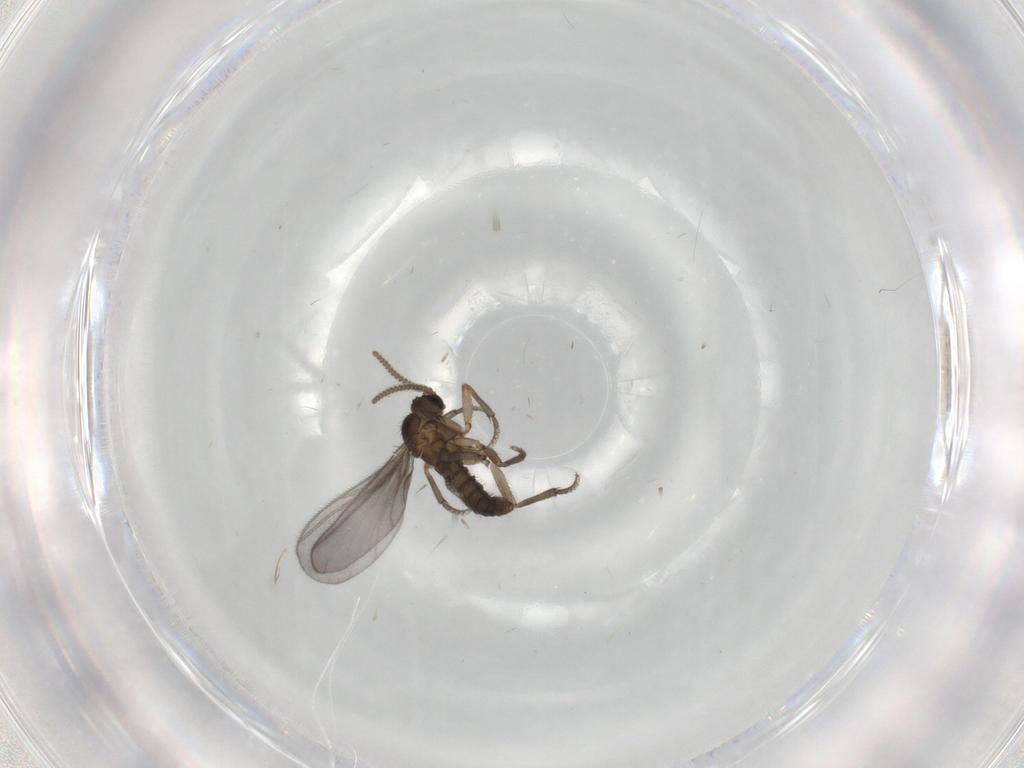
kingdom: Animalia
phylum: Arthropoda
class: Insecta
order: Diptera
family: Sciaridae
